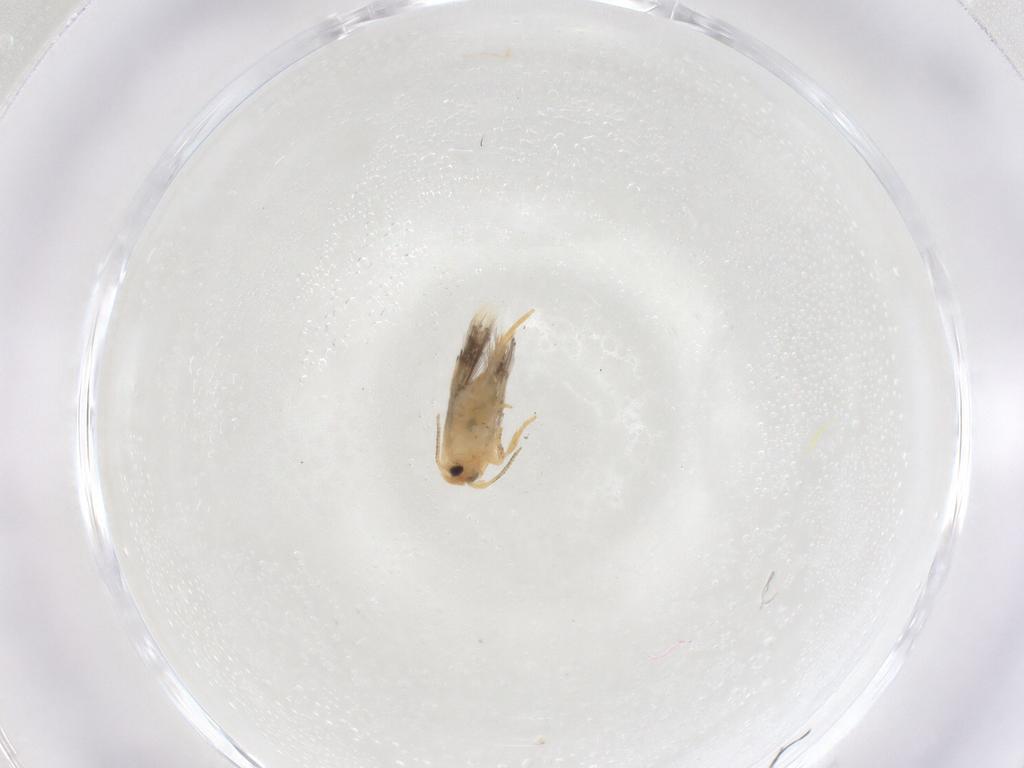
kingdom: Animalia
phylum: Arthropoda
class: Insecta
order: Lepidoptera
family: Nepticulidae
